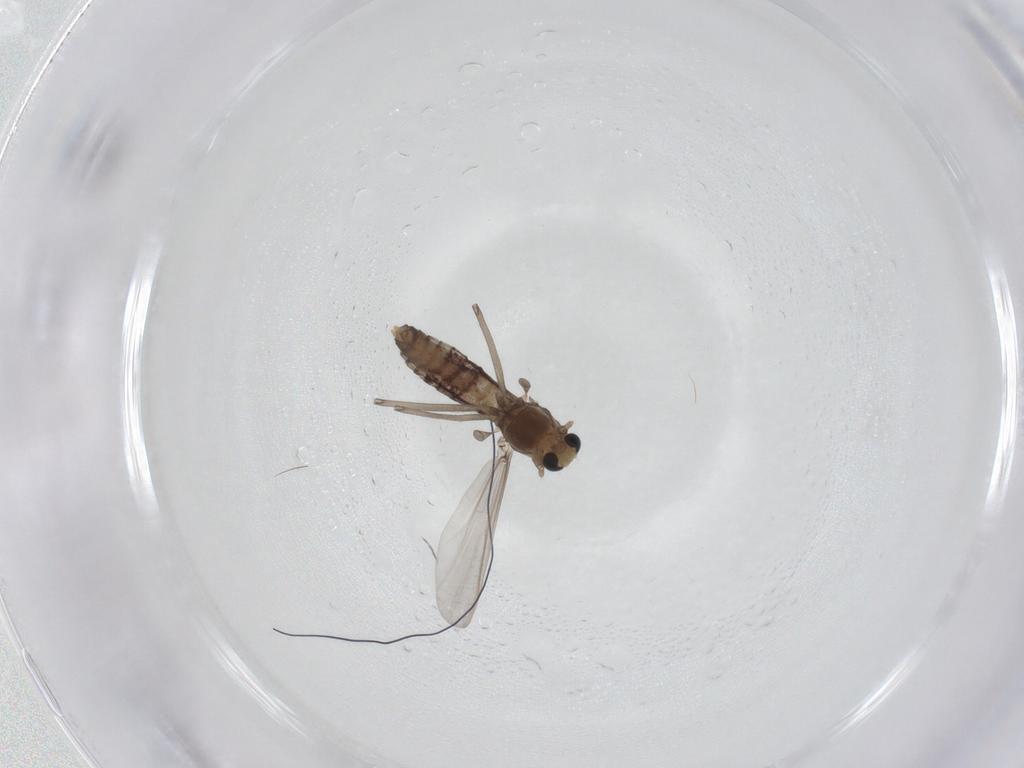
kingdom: Animalia
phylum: Arthropoda
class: Insecta
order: Diptera
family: Chironomidae
